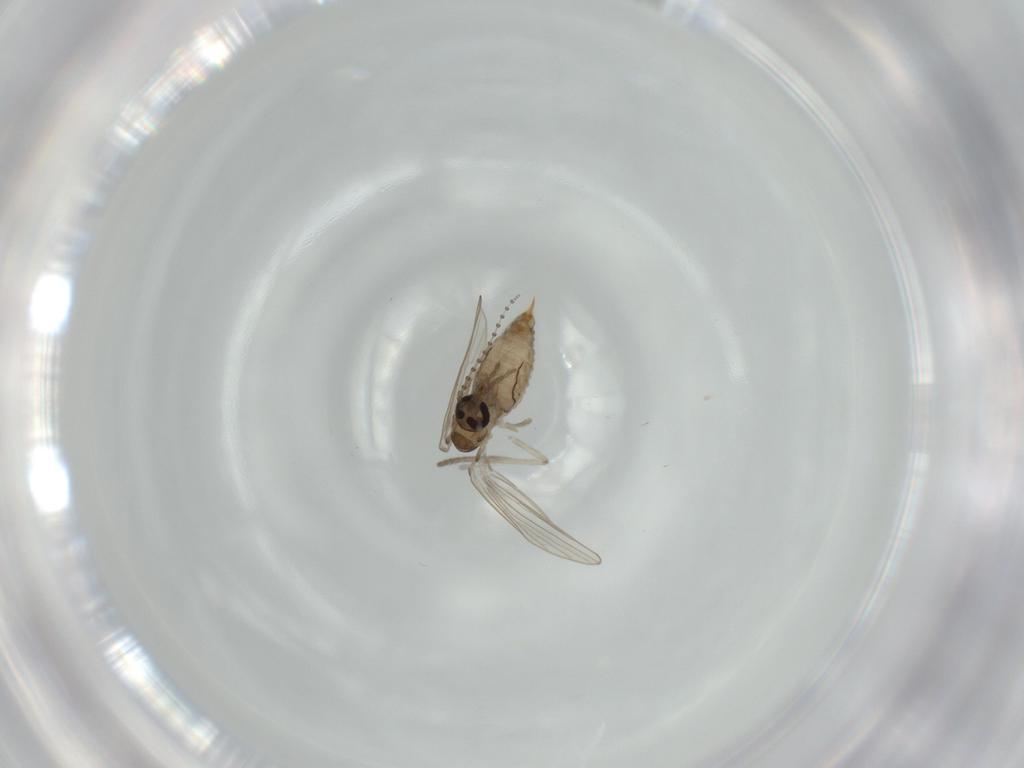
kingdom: Animalia
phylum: Arthropoda
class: Insecta
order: Diptera
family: Psychodidae
